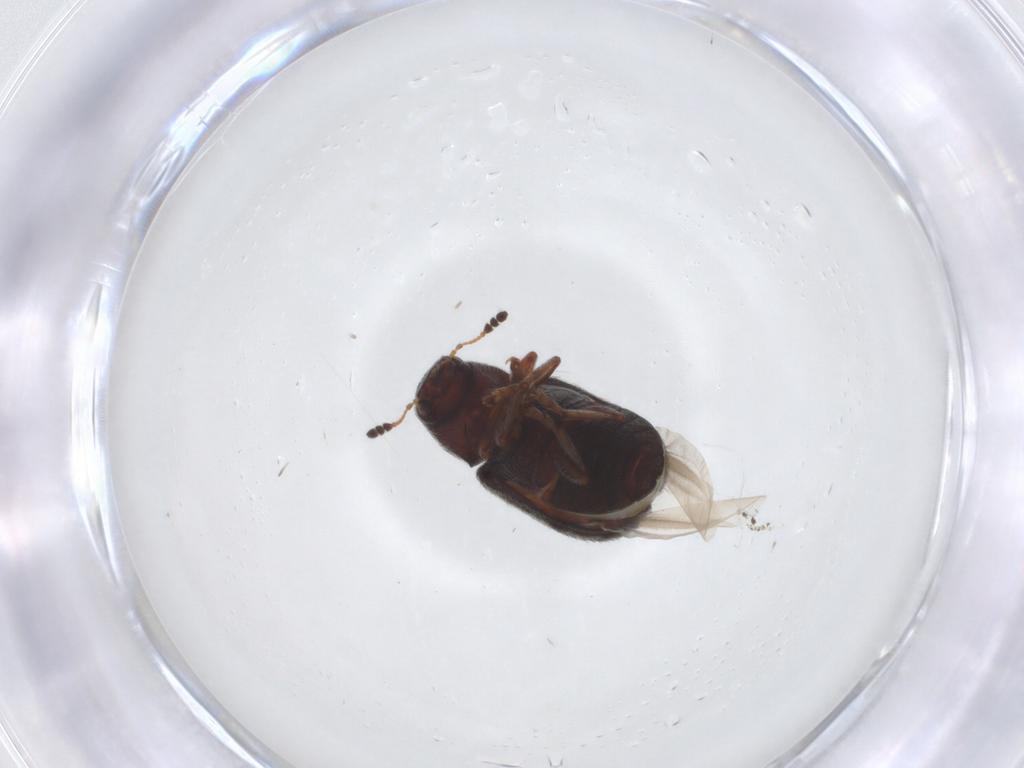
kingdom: Animalia
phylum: Arthropoda
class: Insecta
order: Coleoptera
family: Anthribidae
